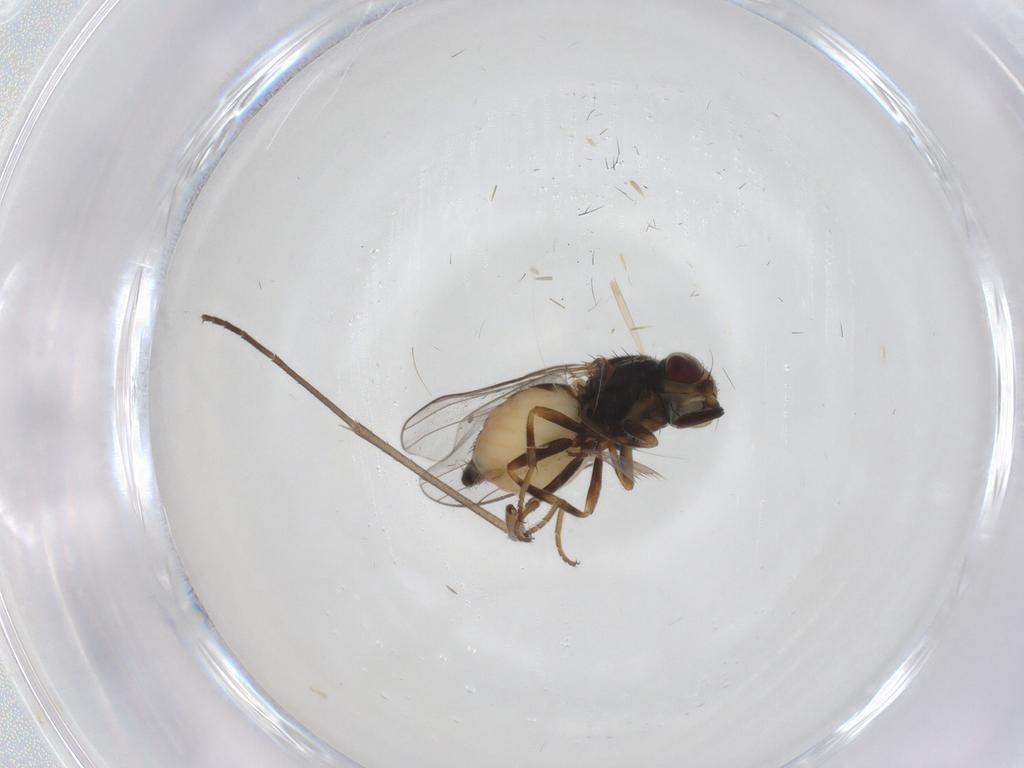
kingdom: Animalia
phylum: Arthropoda
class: Insecta
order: Diptera
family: Chloropidae
